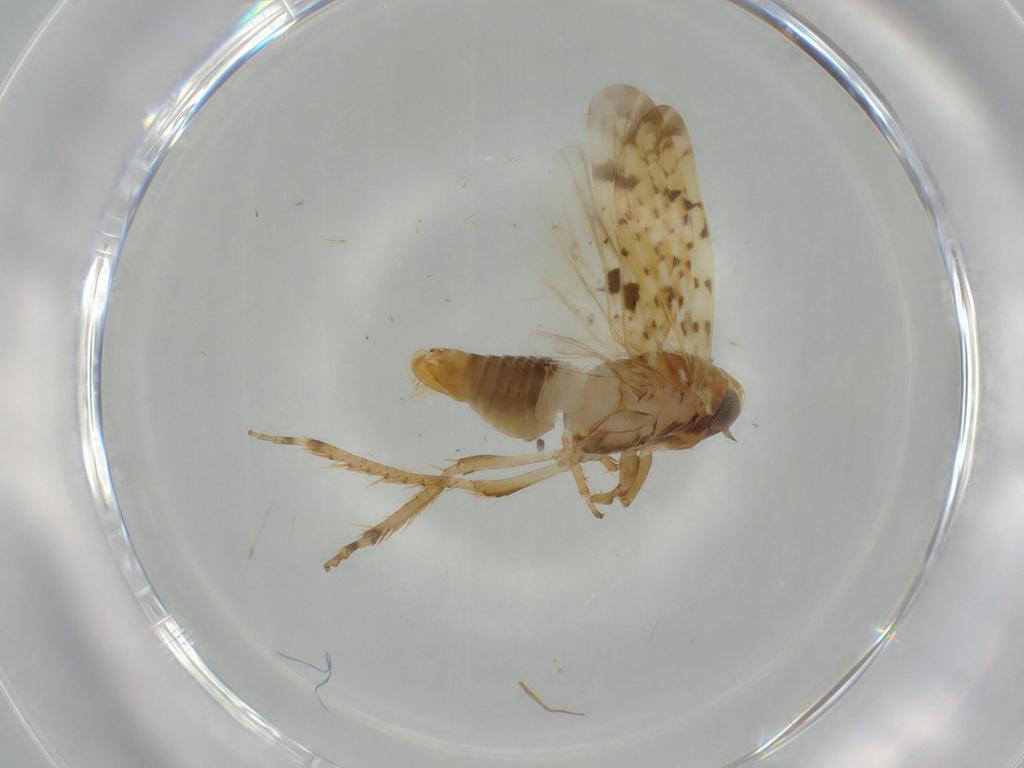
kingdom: Animalia
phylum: Arthropoda
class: Insecta
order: Hemiptera
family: Cicadellidae
